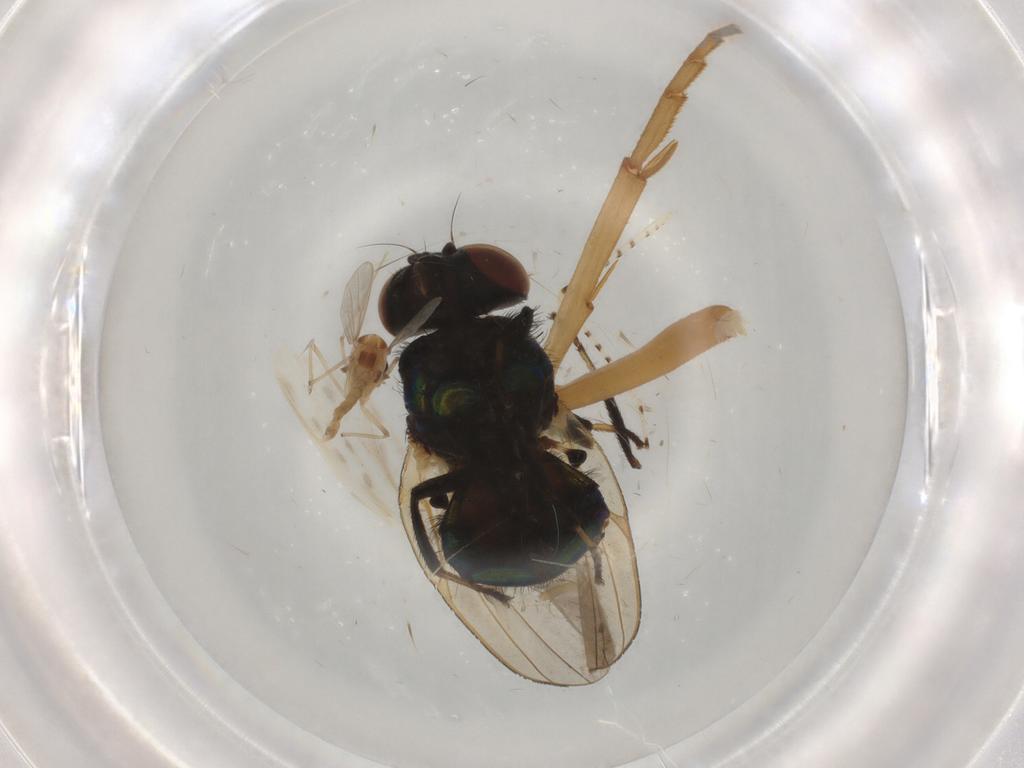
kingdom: Animalia
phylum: Arthropoda
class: Insecta
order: Diptera
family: Chironomidae
